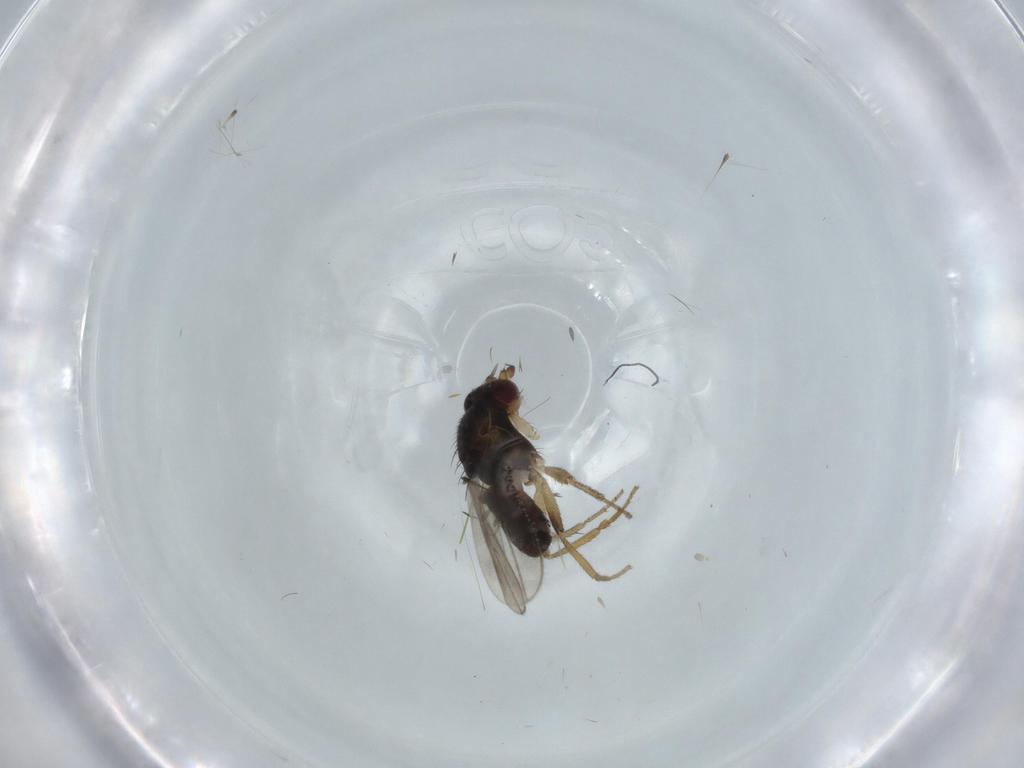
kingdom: Animalia
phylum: Arthropoda
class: Insecta
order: Diptera
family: Sphaeroceridae
